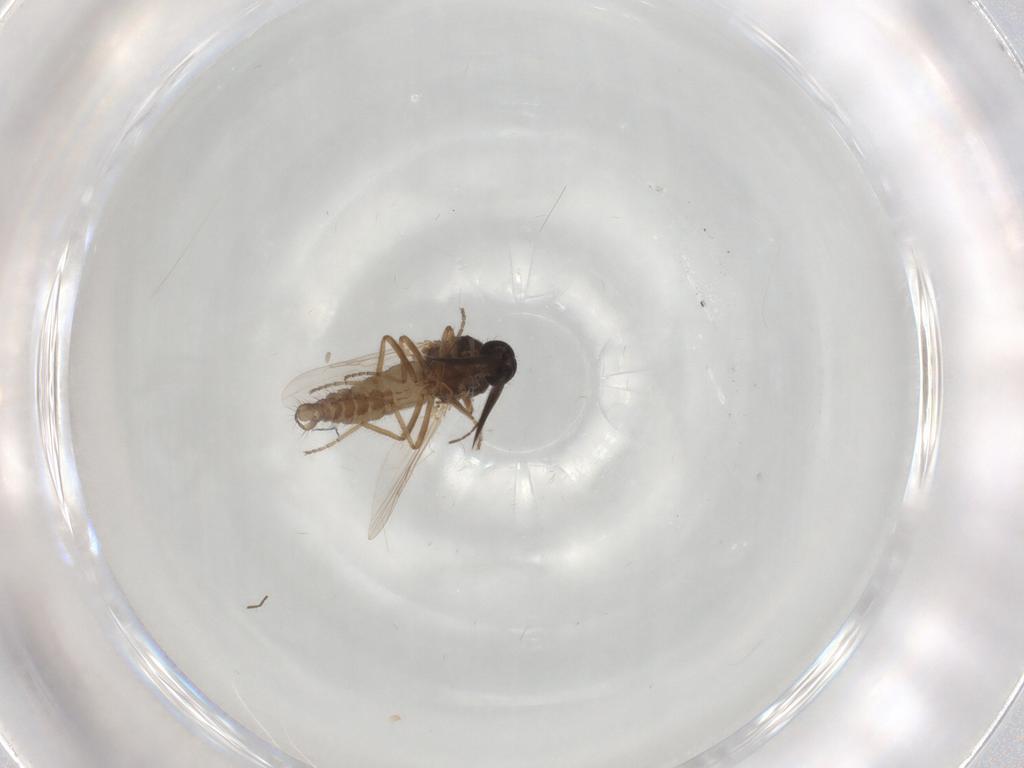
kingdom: Animalia
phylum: Arthropoda
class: Insecta
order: Diptera
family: Ceratopogonidae
